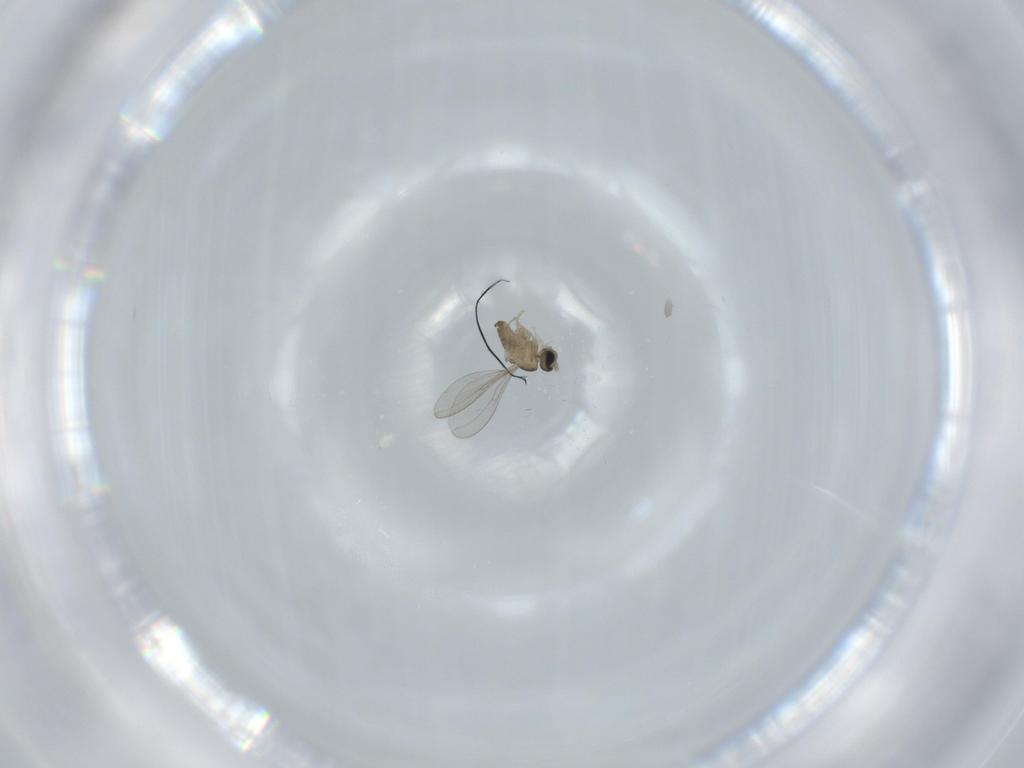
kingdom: Animalia
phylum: Arthropoda
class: Insecta
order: Diptera
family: Cecidomyiidae
